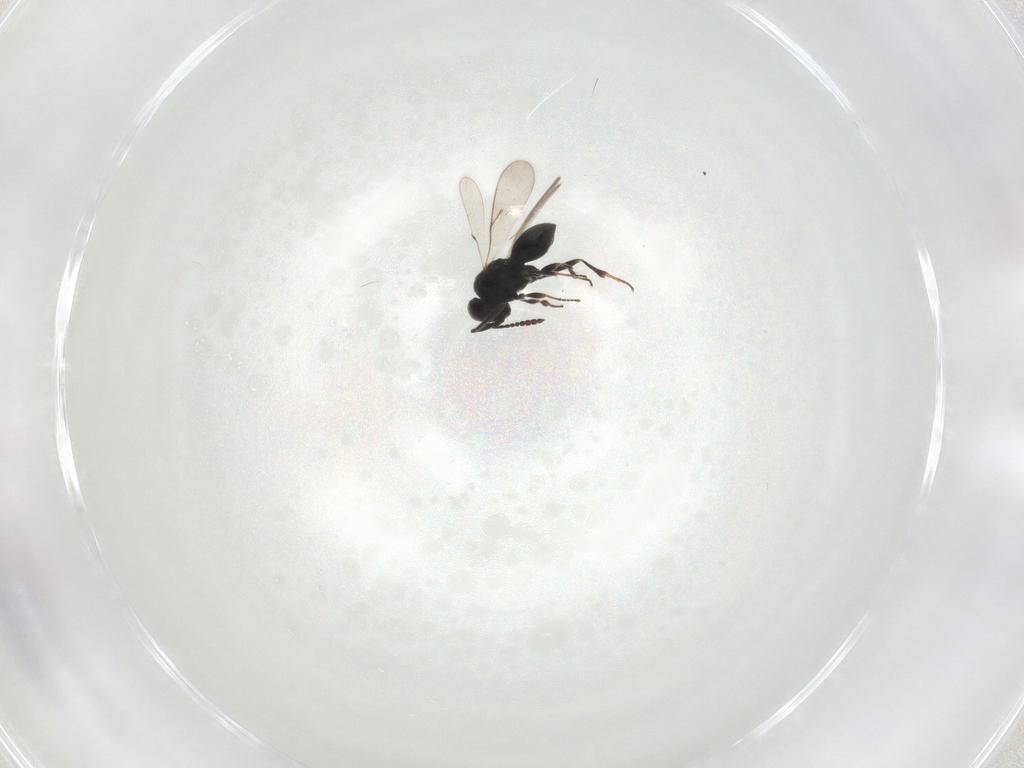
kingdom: Animalia
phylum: Arthropoda
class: Insecta
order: Hymenoptera
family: Scelionidae
